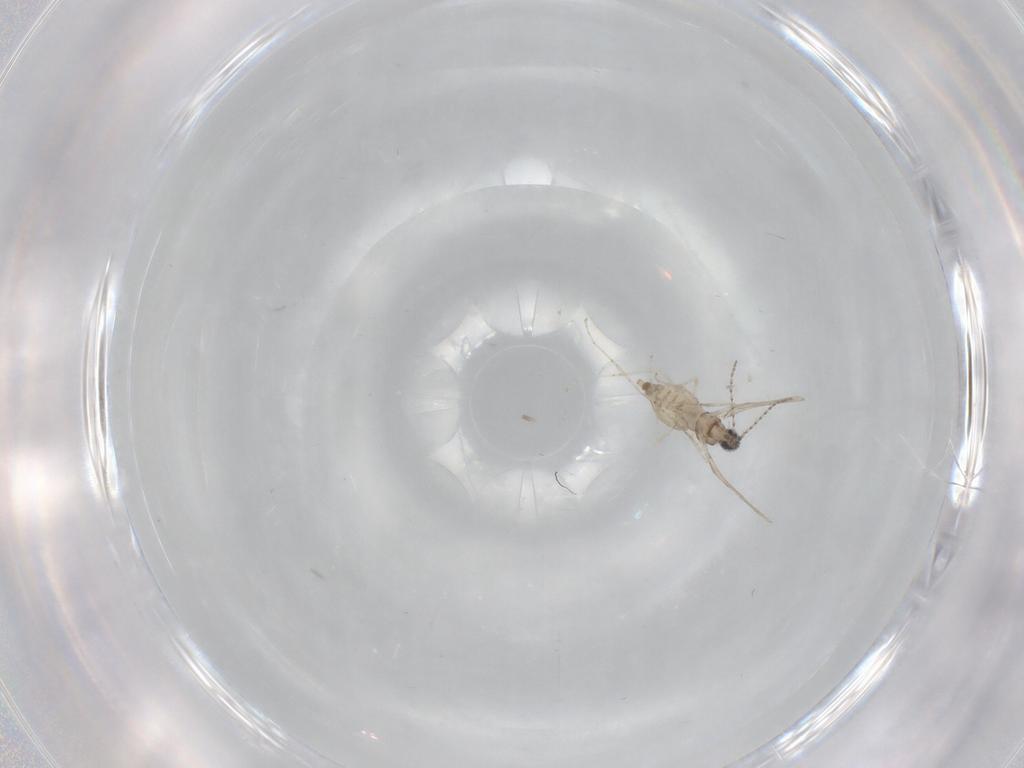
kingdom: Animalia
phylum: Arthropoda
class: Insecta
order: Diptera
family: Cecidomyiidae
